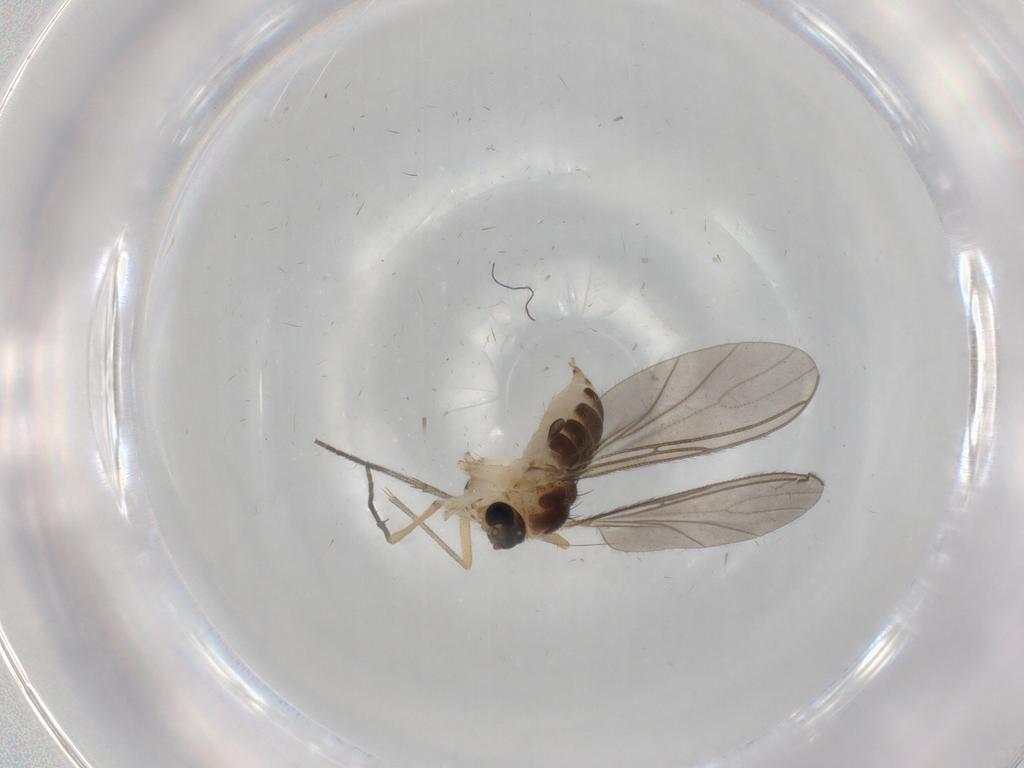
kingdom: Animalia
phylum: Arthropoda
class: Insecta
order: Diptera
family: Sciaridae
